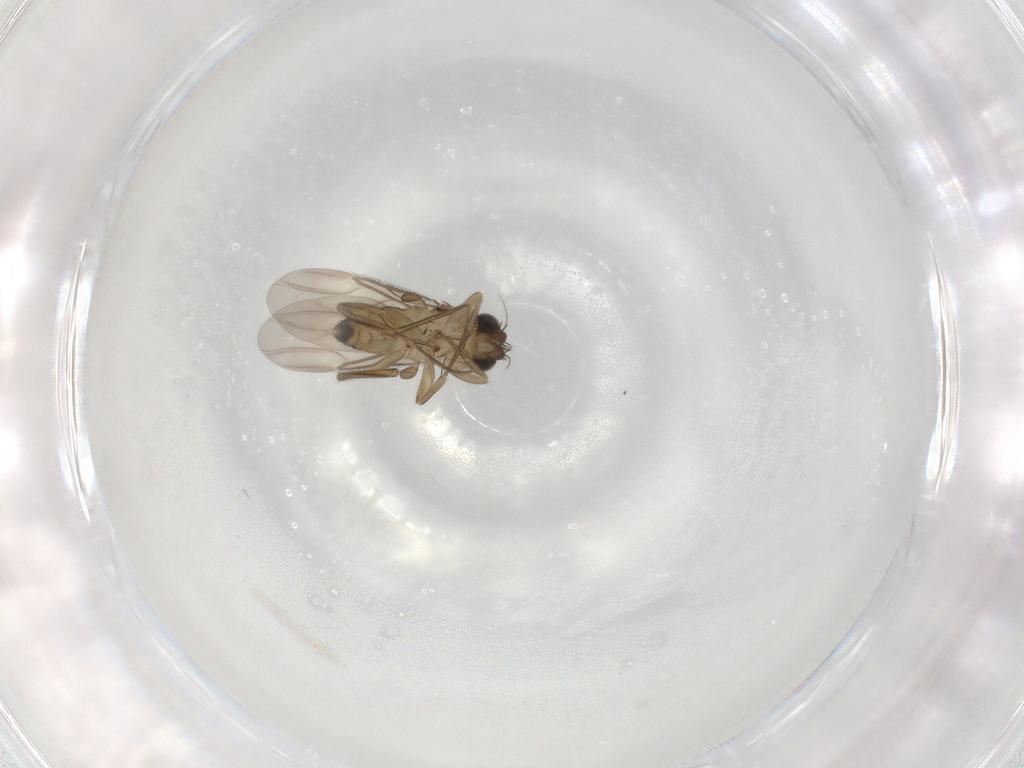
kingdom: Animalia
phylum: Arthropoda
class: Insecta
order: Diptera
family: Phoridae
